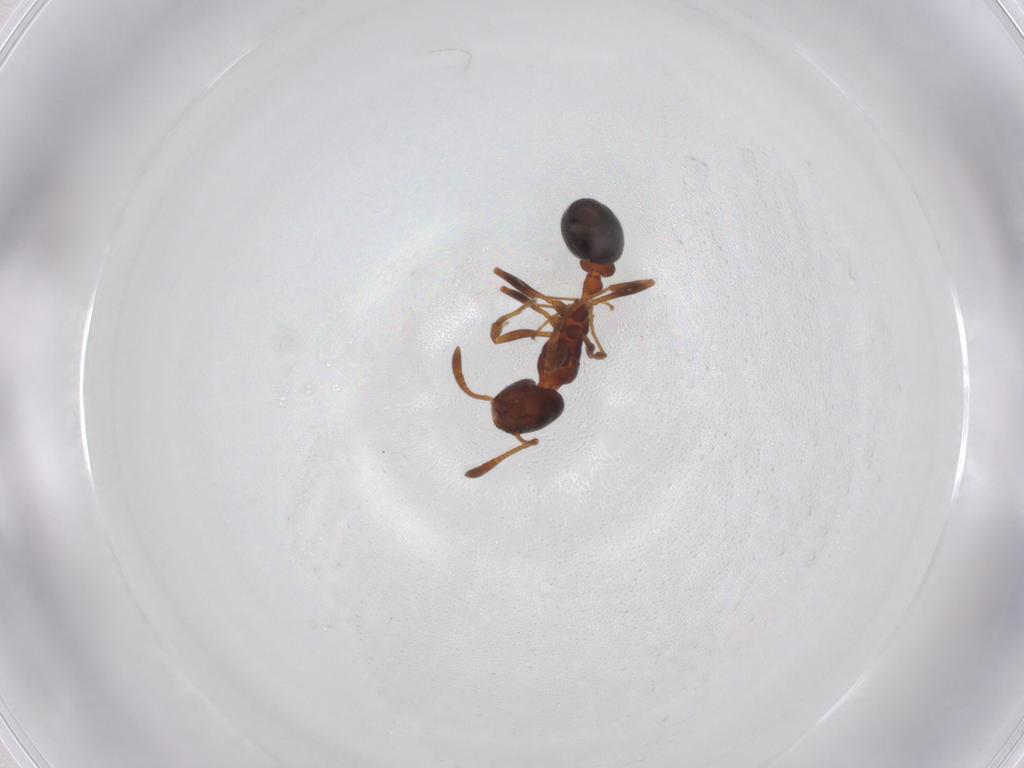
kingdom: Animalia
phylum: Arthropoda
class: Insecta
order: Hymenoptera
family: Formicidae
